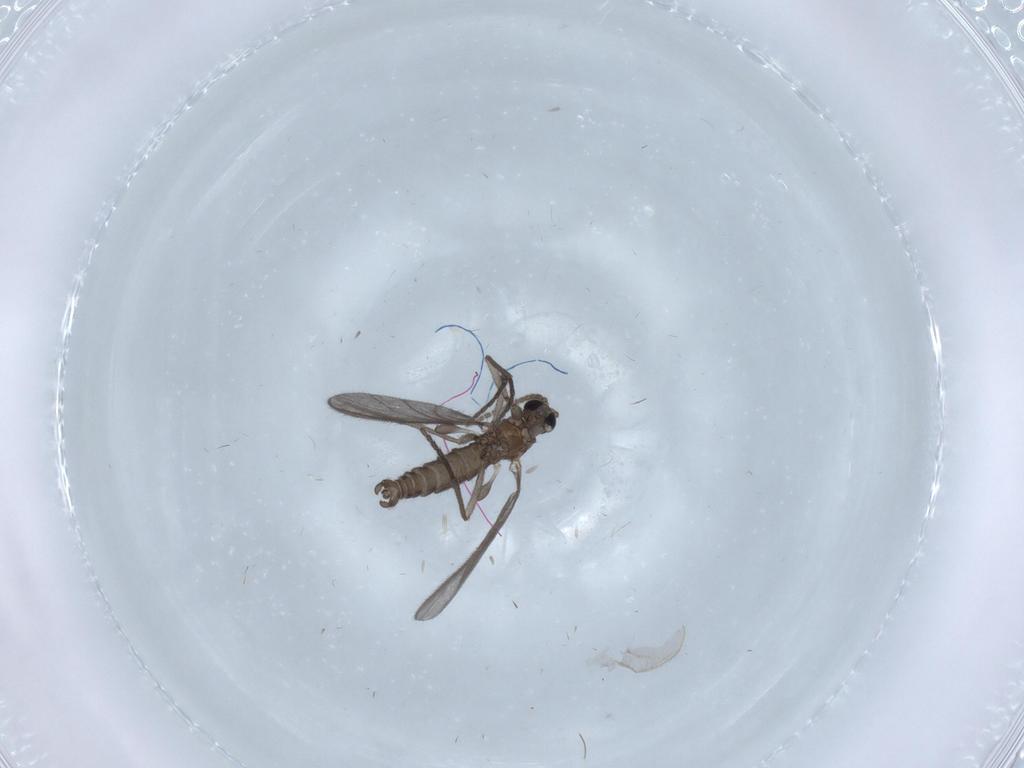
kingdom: Animalia
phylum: Arthropoda
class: Insecta
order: Diptera
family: Sciaridae
